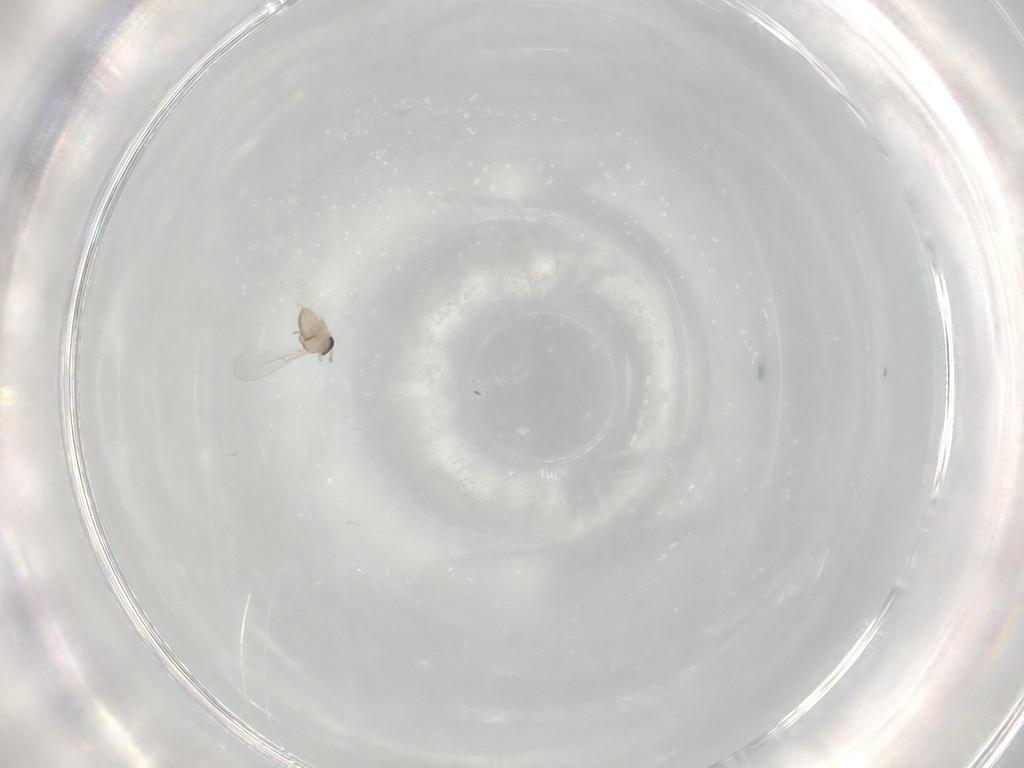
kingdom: Animalia
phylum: Arthropoda
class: Insecta
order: Diptera
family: Cecidomyiidae
